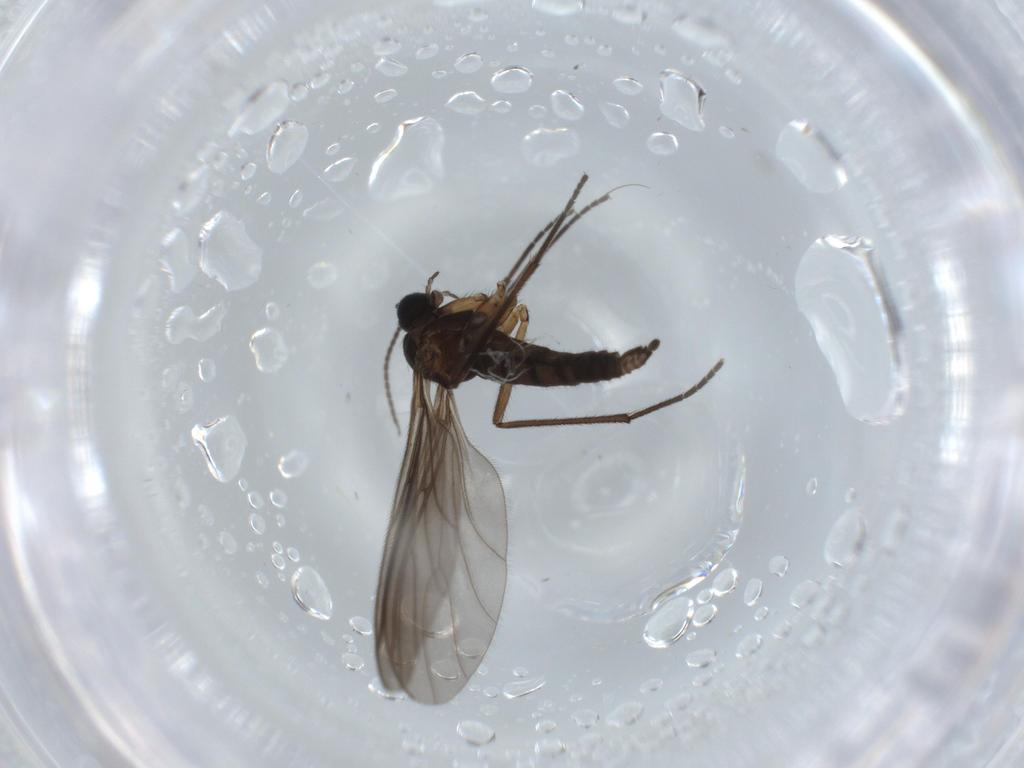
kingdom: Animalia
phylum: Arthropoda
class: Insecta
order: Diptera
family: Sciaridae
